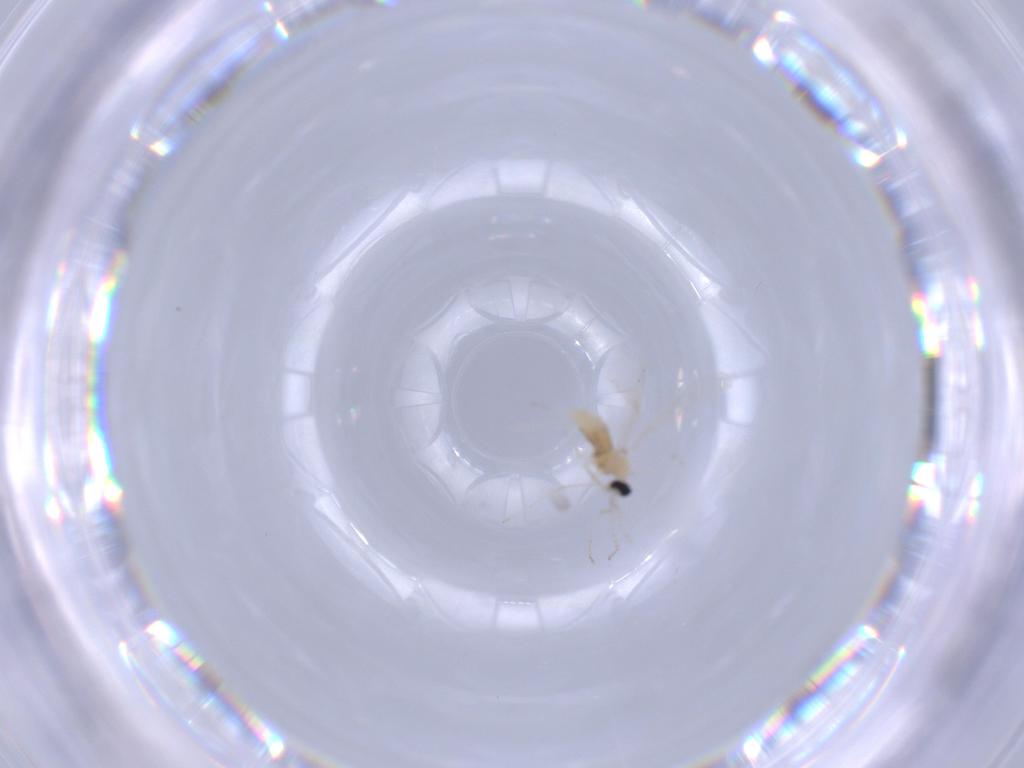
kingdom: Animalia
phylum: Arthropoda
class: Insecta
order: Diptera
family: Cecidomyiidae
